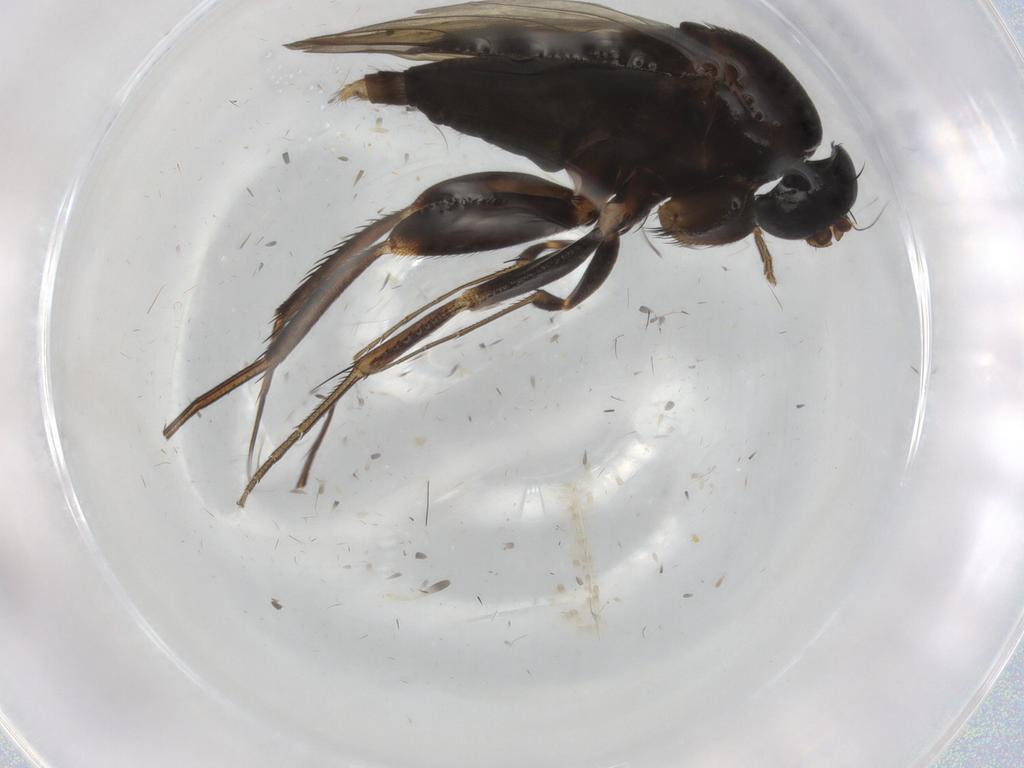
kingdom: Animalia
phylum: Arthropoda
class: Insecta
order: Diptera
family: Phoridae
